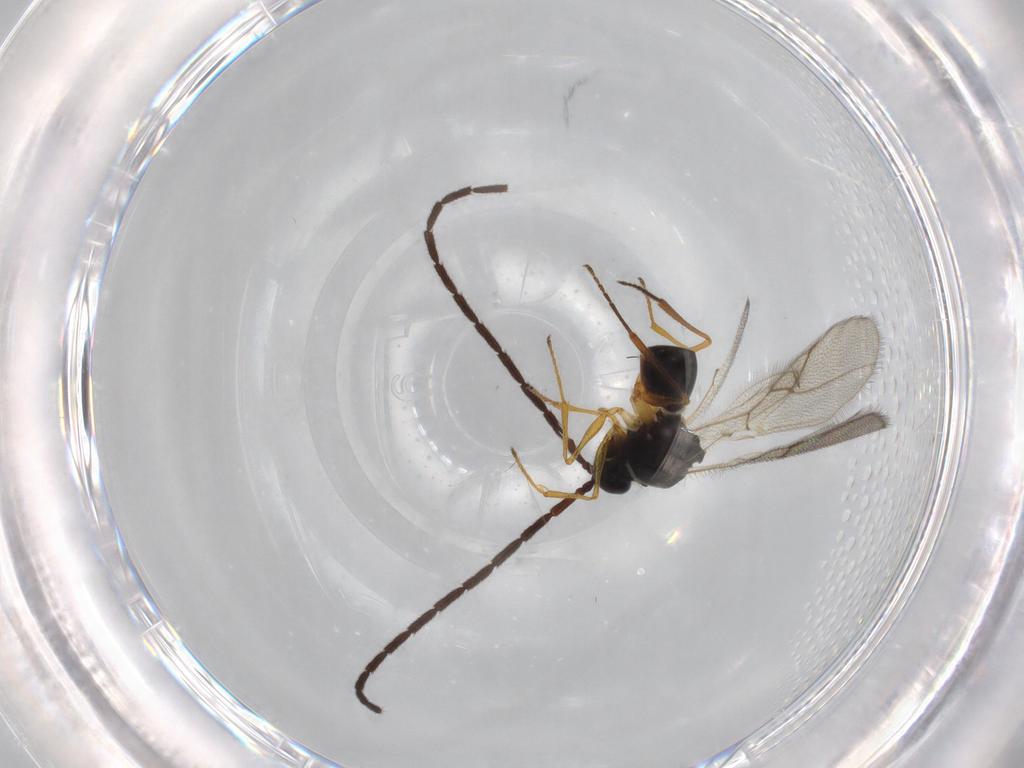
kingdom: Animalia
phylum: Arthropoda
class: Insecta
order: Hymenoptera
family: Figitidae
